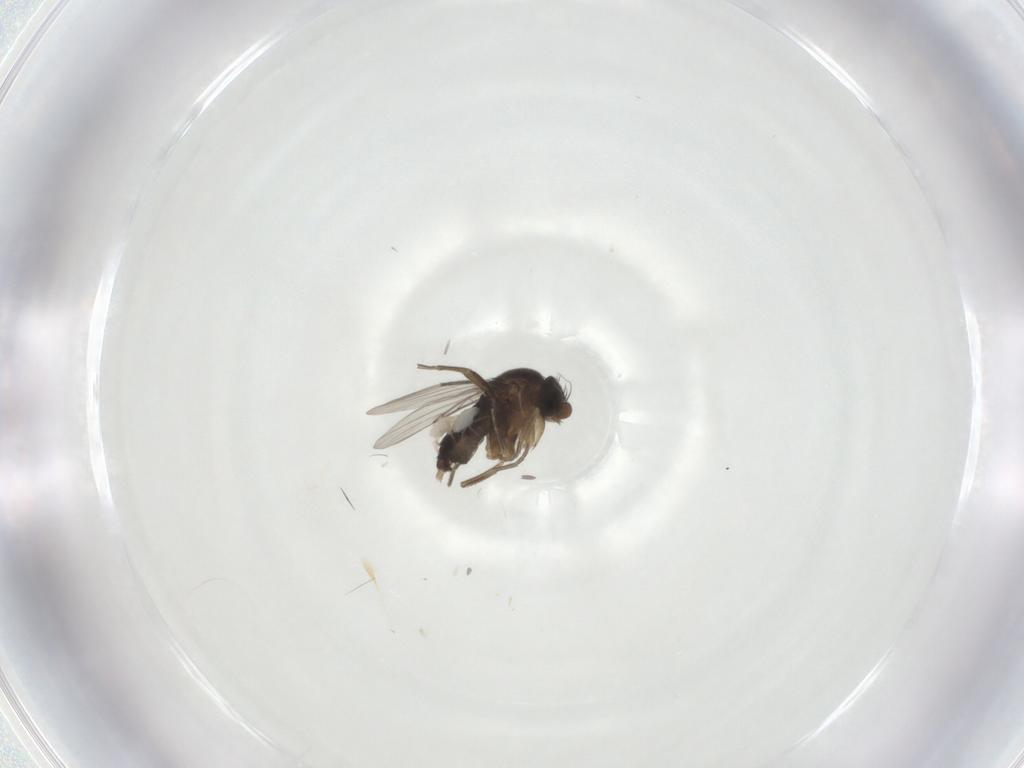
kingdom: Animalia
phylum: Arthropoda
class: Insecta
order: Diptera
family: Phoridae
